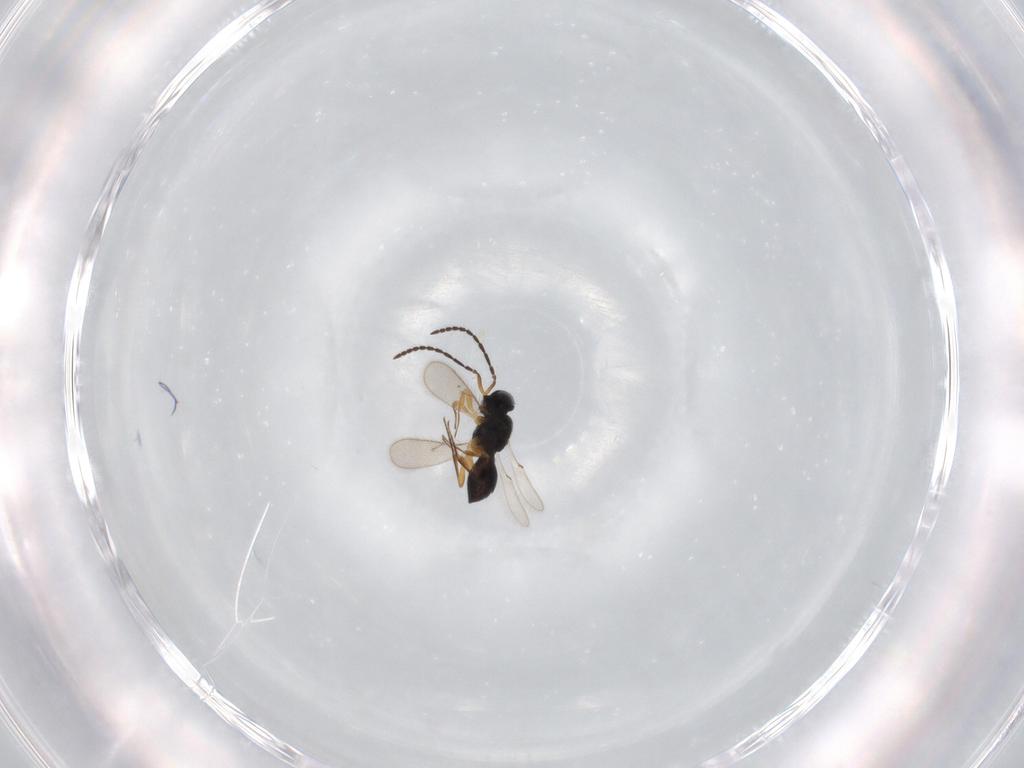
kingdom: Animalia
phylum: Arthropoda
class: Insecta
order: Hymenoptera
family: Scelionidae
